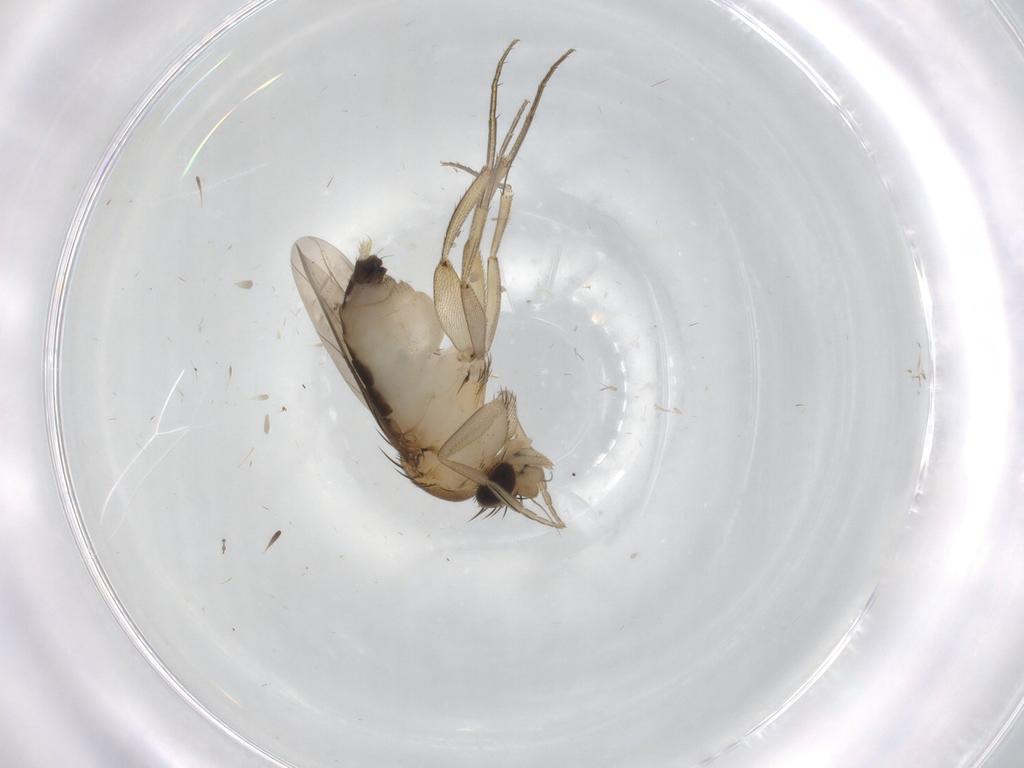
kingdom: Animalia
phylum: Arthropoda
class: Insecta
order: Diptera
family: Phoridae
